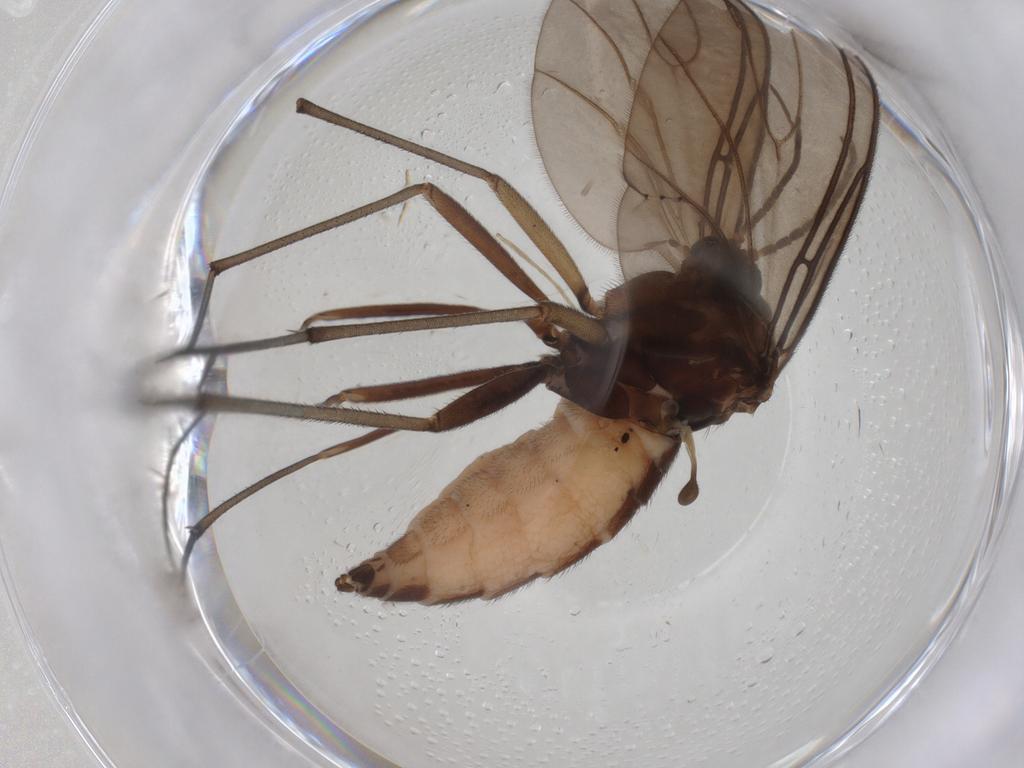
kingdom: Animalia
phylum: Arthropoda
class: Insecta
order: Diptera
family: Sciaridae
